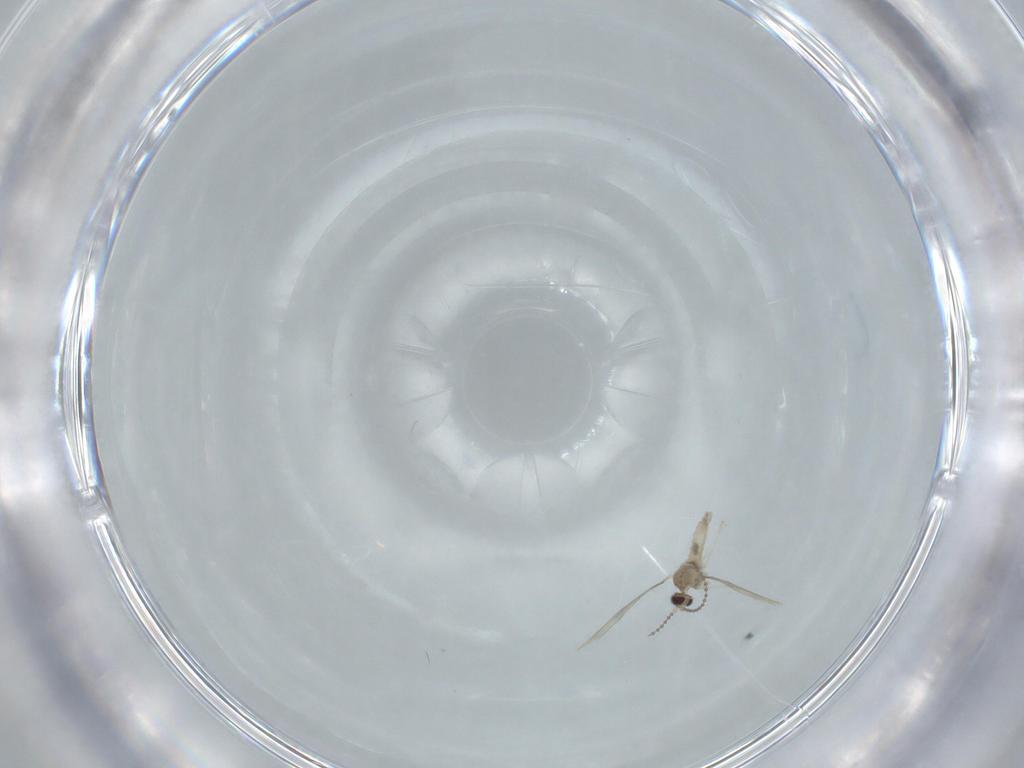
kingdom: Animalia
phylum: Arthropoda
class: Insecta
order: Diptera
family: Cecidomyiidae
